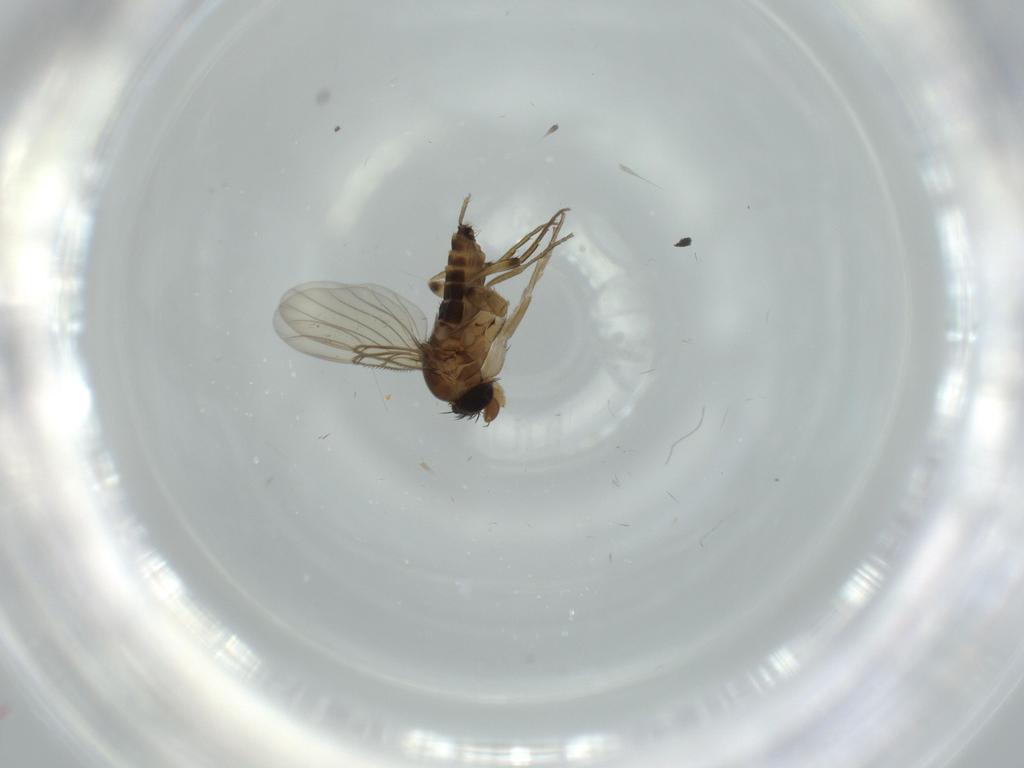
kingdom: Animalia
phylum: Arthropoda
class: Insecta
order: Diptera
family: Phoridae
